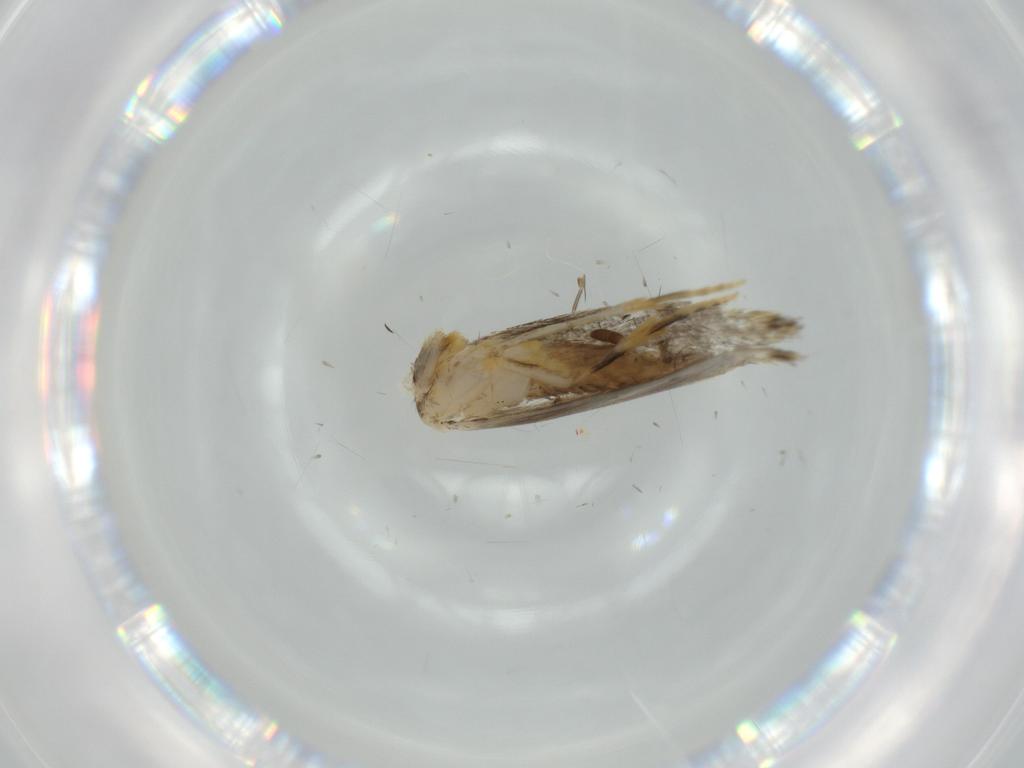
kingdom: Animalia
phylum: Arthropoda
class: Insecta
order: Lepidoptera
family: Tineidae
